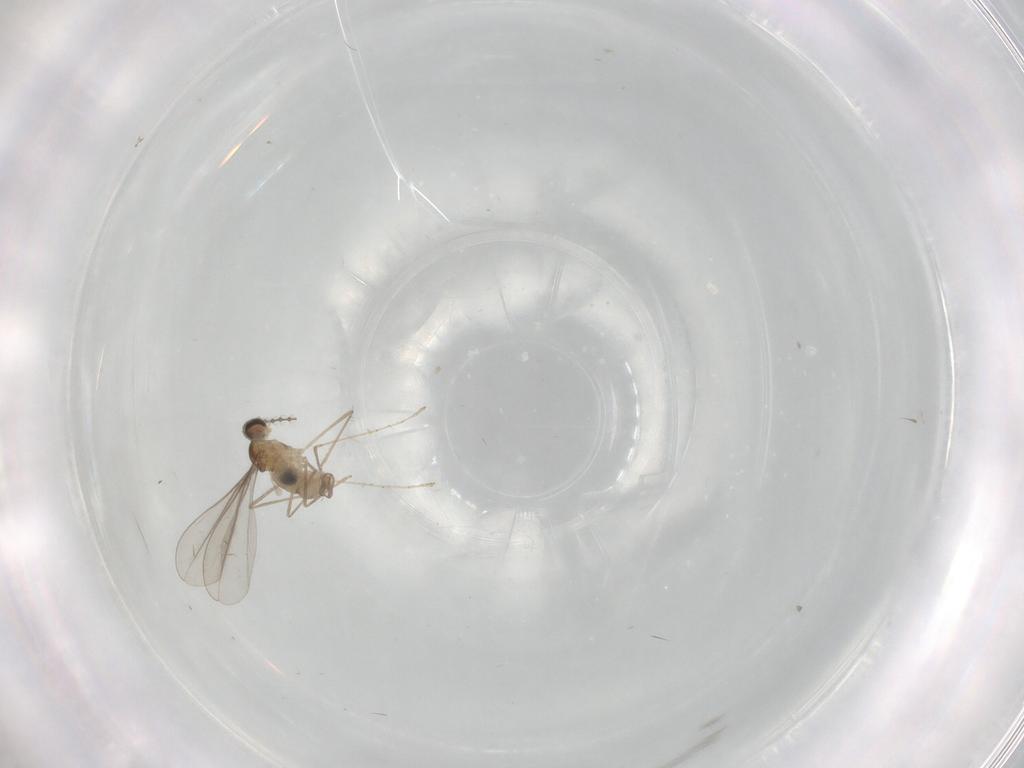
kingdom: Animalia
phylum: Arthropoda
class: Insecta
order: Diptera
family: Cecidomyiidae
